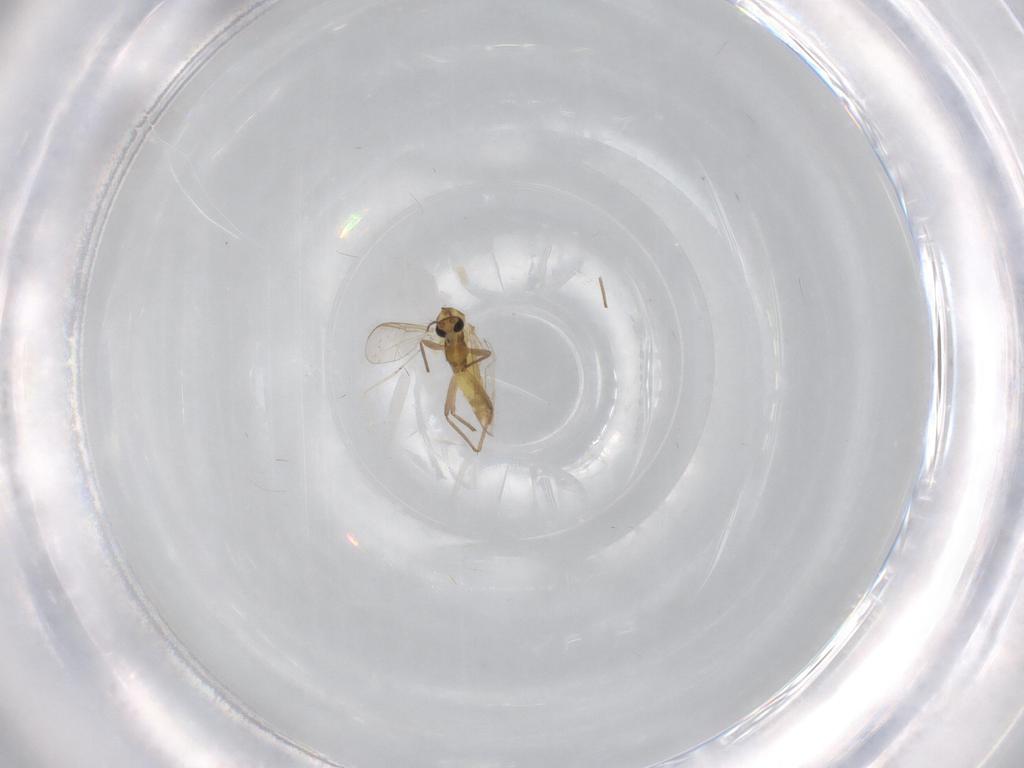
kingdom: Animalia
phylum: Arthropoda
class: Insecta
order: Diptera
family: Chironomidae
